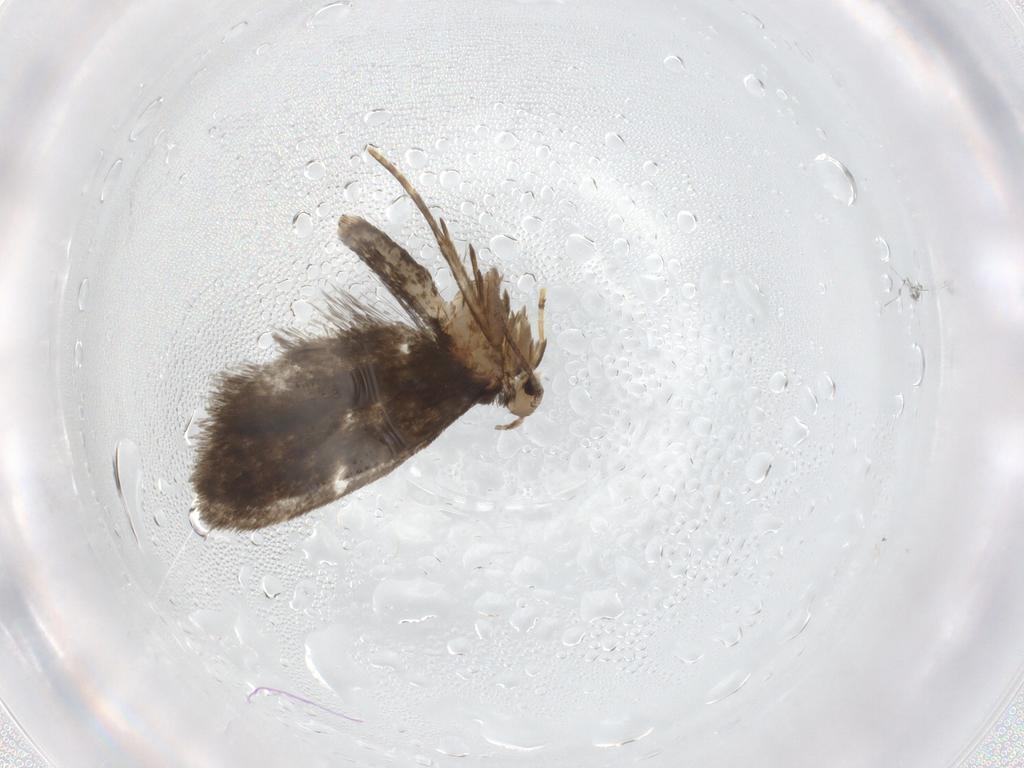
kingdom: Animalia
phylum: Arthropoda
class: Insecta
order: Lepidoptera
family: Psychidae
